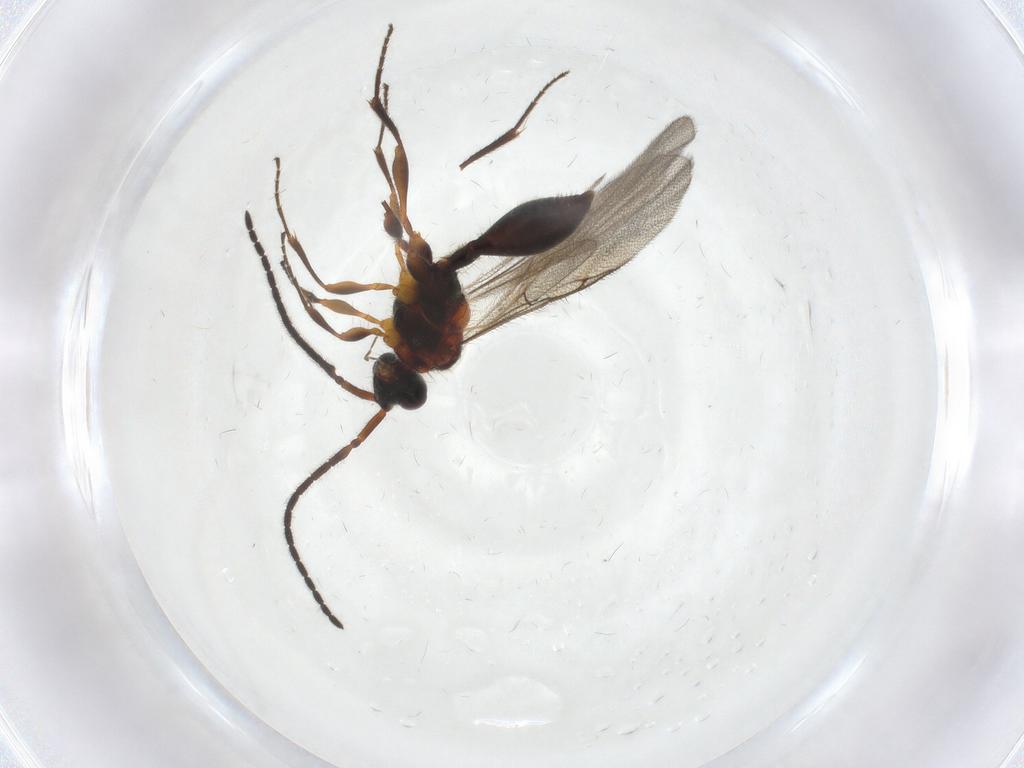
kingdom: Animalia
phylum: Arthropoda
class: Insecta
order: Hymenoptera
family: Diapriidae
